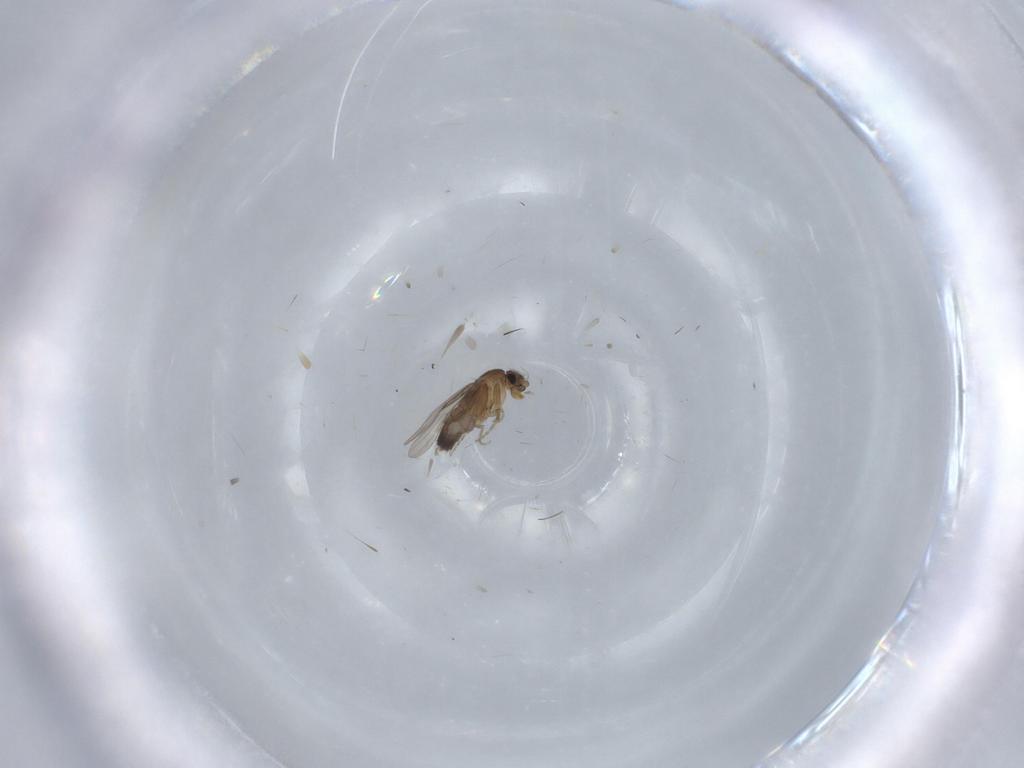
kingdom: Animalia
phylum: Arthropoda
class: Insecta
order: Diptera
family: Phoridae
